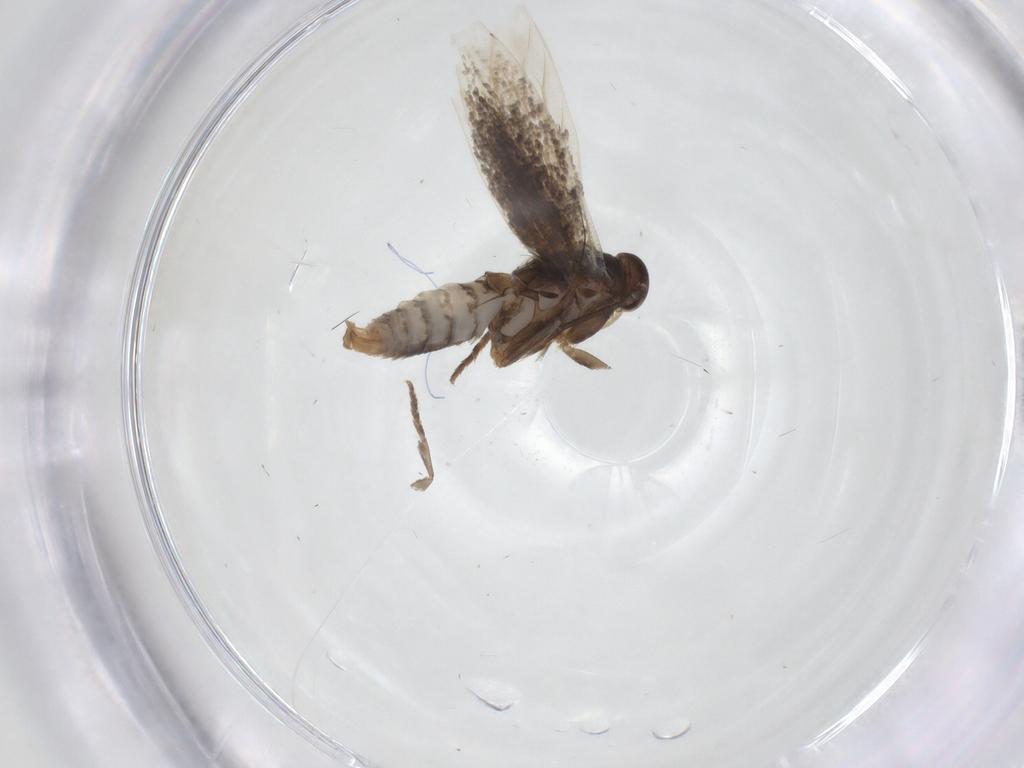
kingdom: Animalia
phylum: Arthropoda
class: Insecta
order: Lepidoptera
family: Elachistidae
